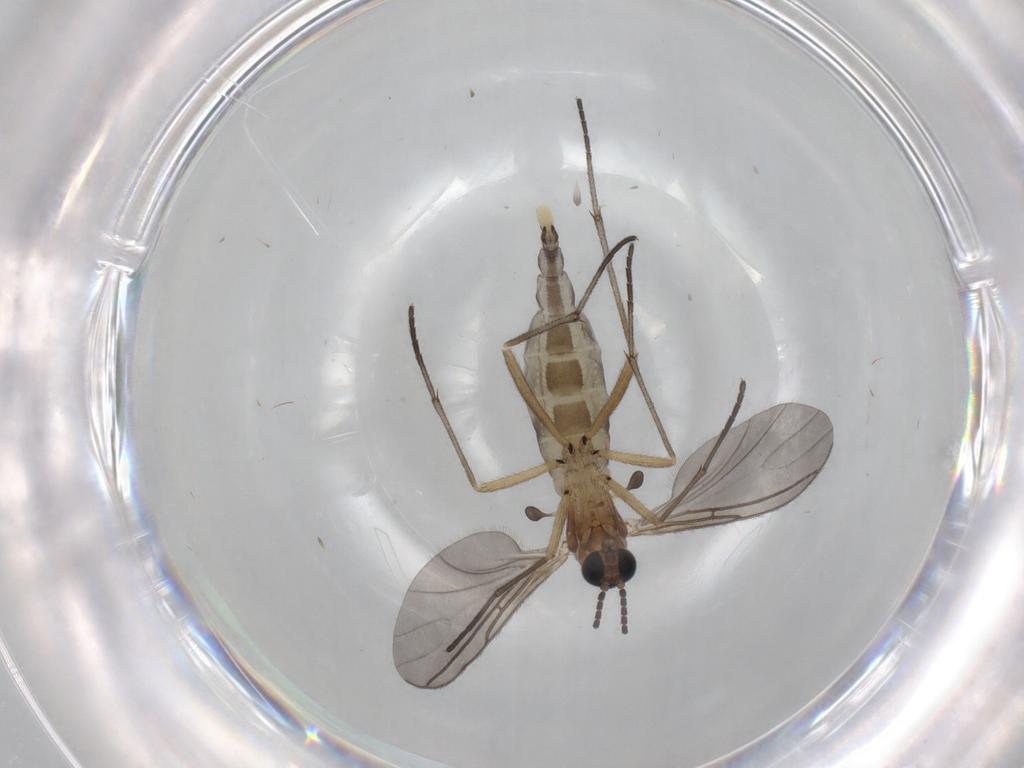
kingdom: Animalia
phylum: Arthropoda
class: Insecta
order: Diptera
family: Sciaridae
